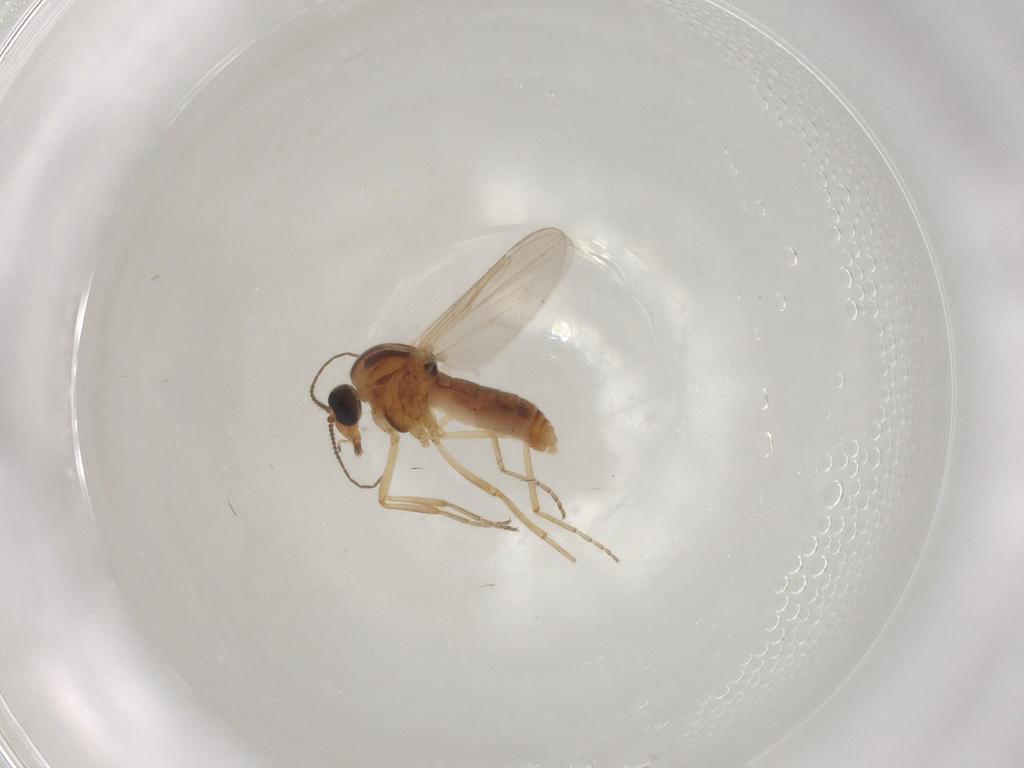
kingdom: Animalia
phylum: Arthropoda
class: Insecta
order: Diptera
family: Ceratopogonidae
